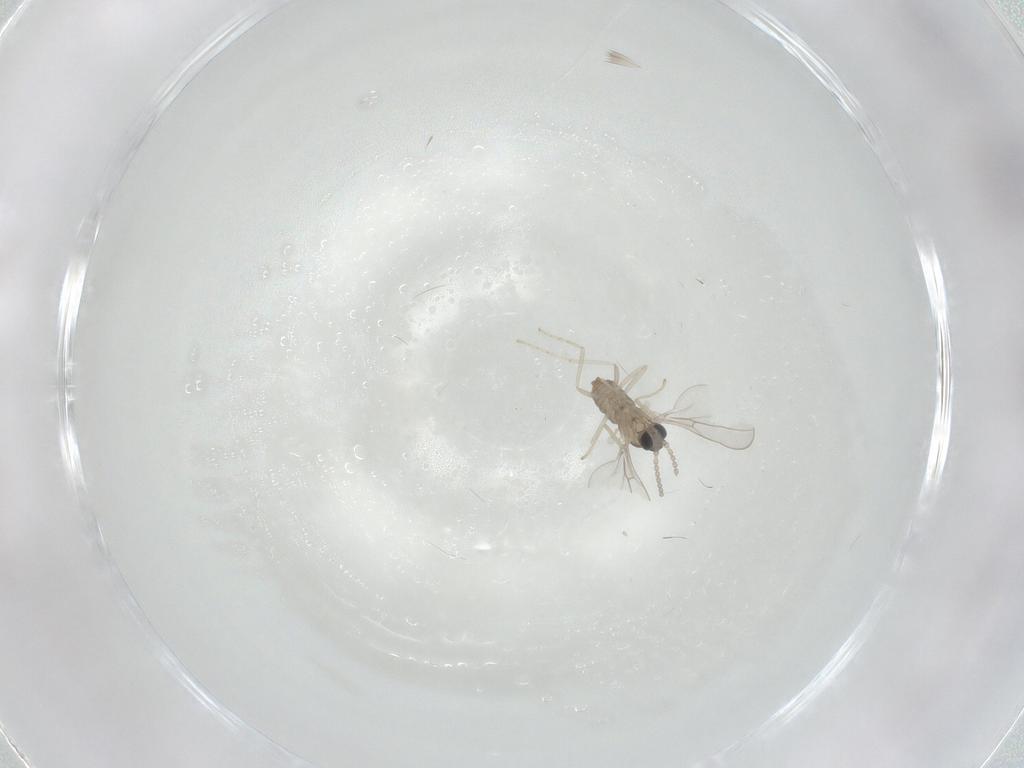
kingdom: Animalia
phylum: Arthropoda
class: Insecta
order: Diptera
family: Cecidomyiidae
